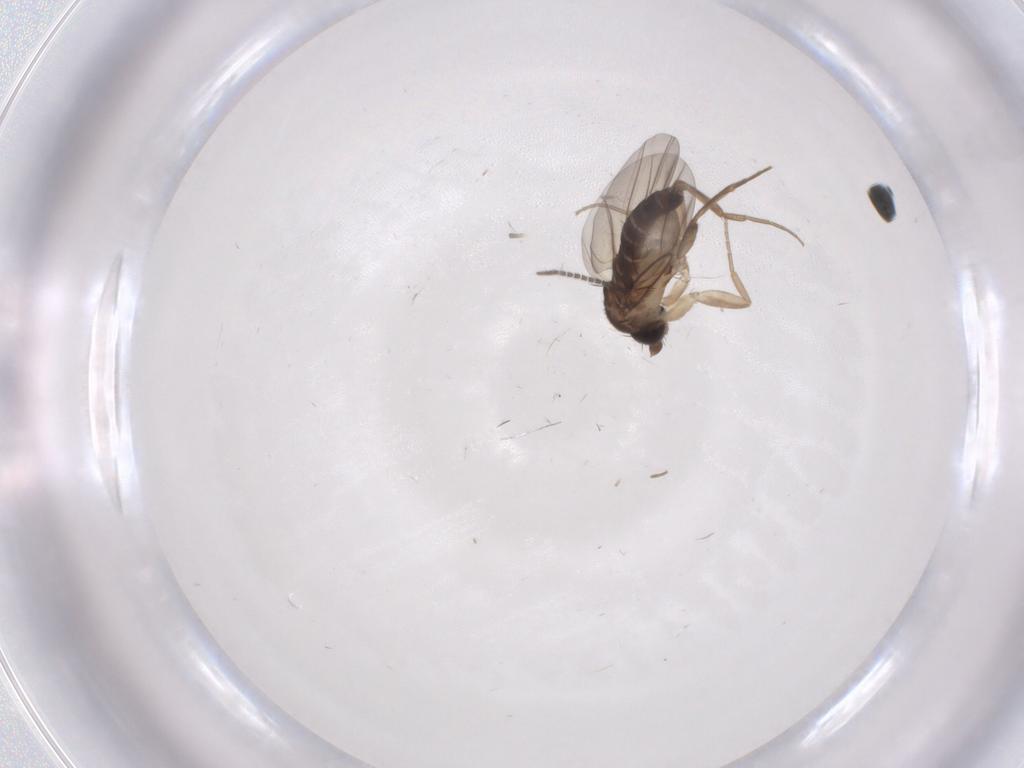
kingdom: Animalia
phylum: Arthropoda
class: Insecta
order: Diptera
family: Phoridae
